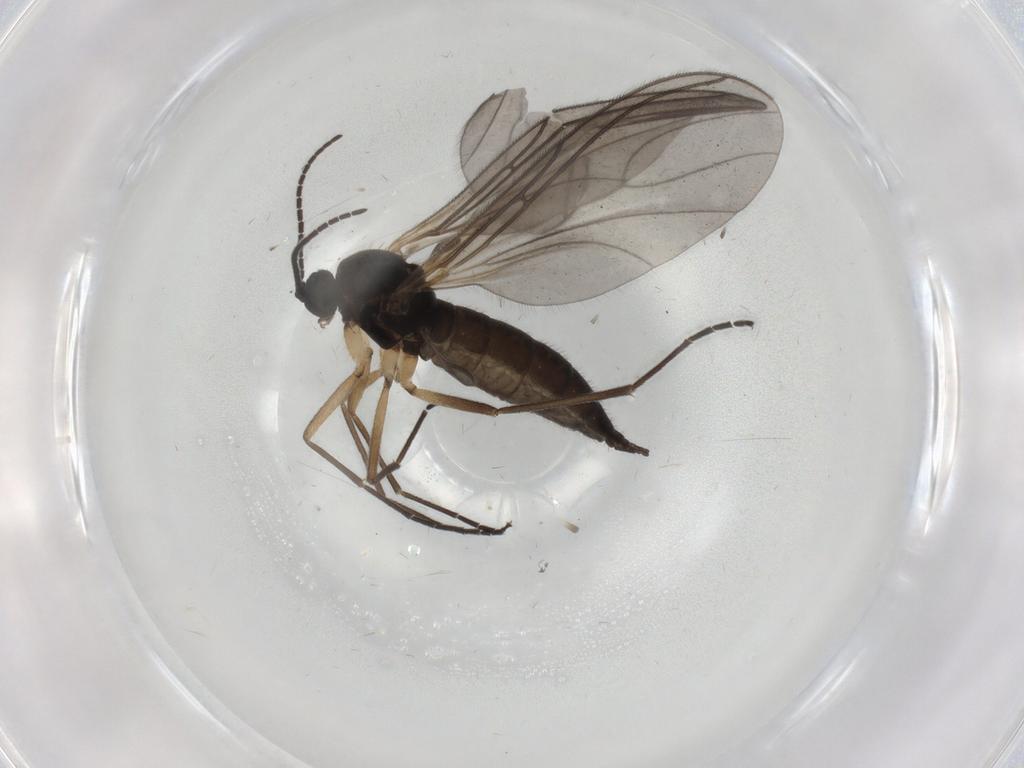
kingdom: Animalia
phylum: Arthropoda
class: Insecta
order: Diptera
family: Sciaridae
